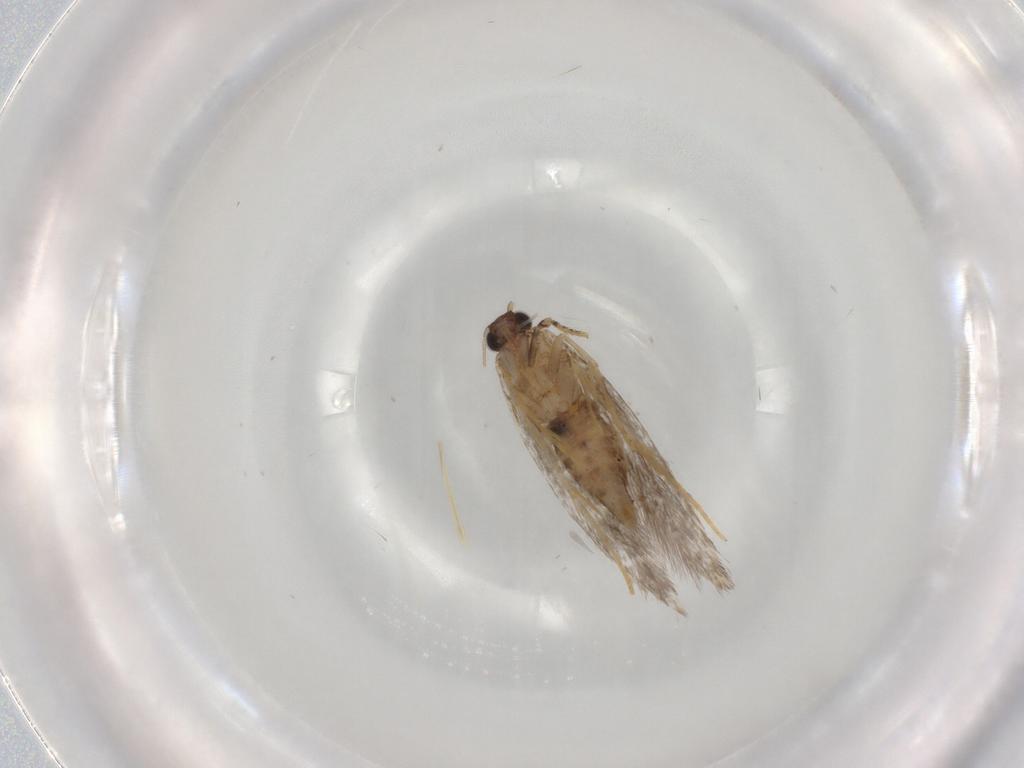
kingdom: Animalia
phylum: Arthropoda
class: Insecta
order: Lepidoptera
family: Tineidae
